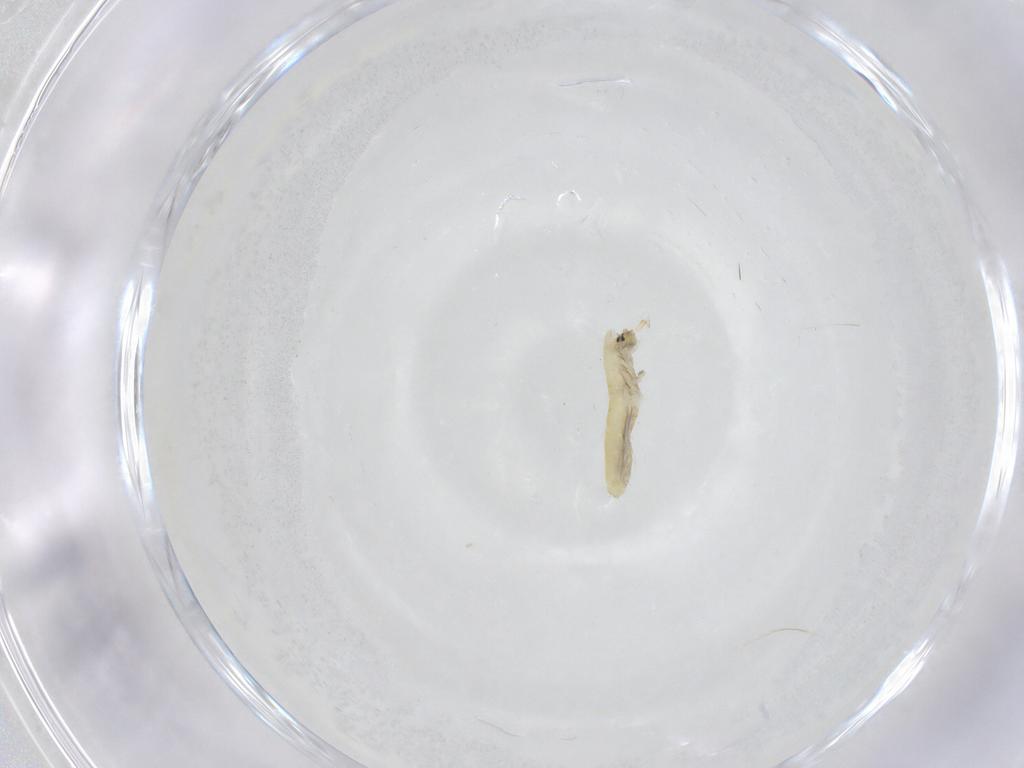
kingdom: Animalia
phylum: Arthropoda
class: Collembola
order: Entomobryomorpha
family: Entomobryidae
